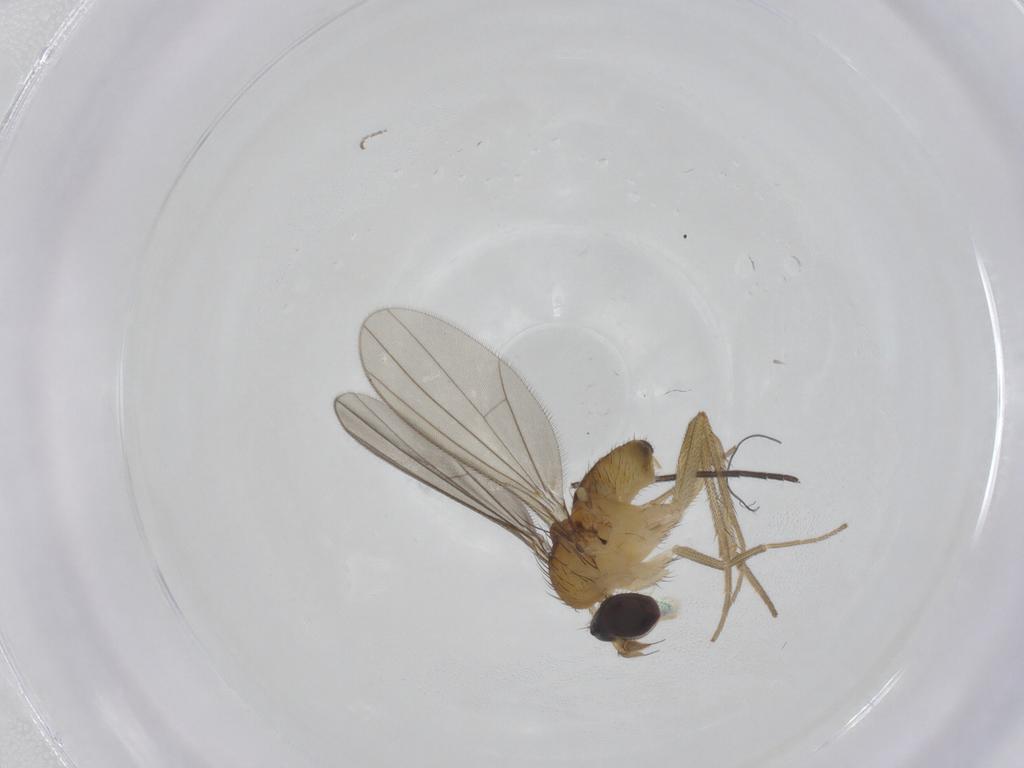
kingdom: Animalia
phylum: Arthropoda
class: Insecta
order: Diptera
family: Dolichopodidae
